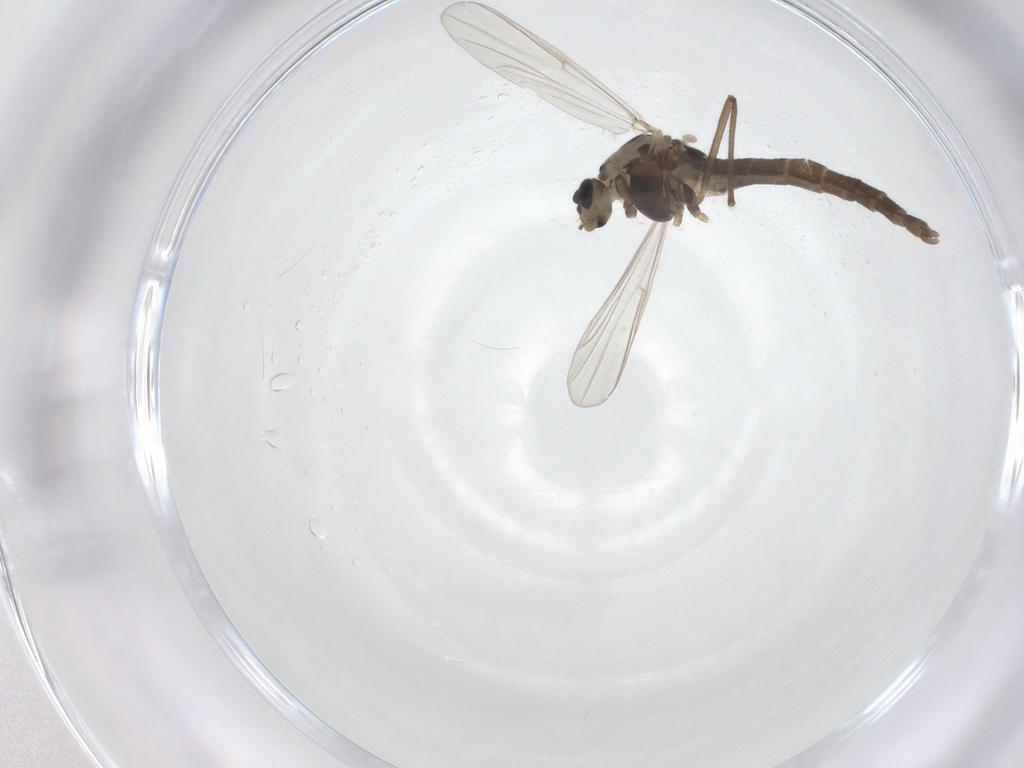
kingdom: Animalia
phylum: Arthropoda
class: Insecta
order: Diptera
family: Chironomidae
